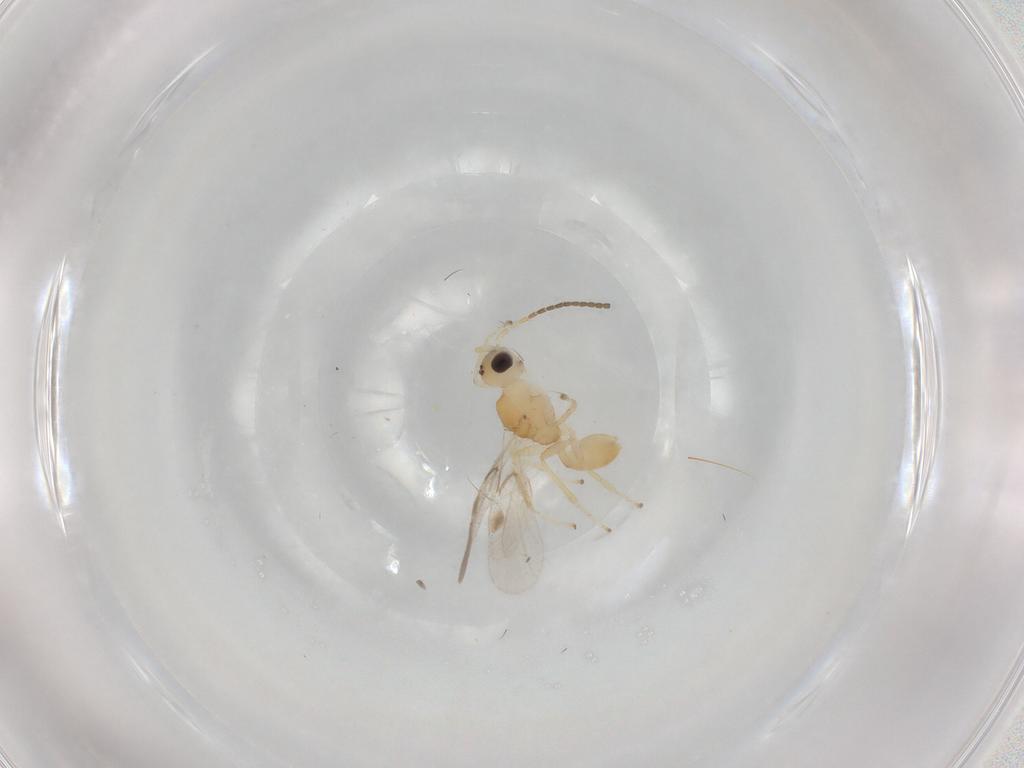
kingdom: Animalia
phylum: Arthropoda
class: Insecta
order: Hymenoptera
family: Braconidae
